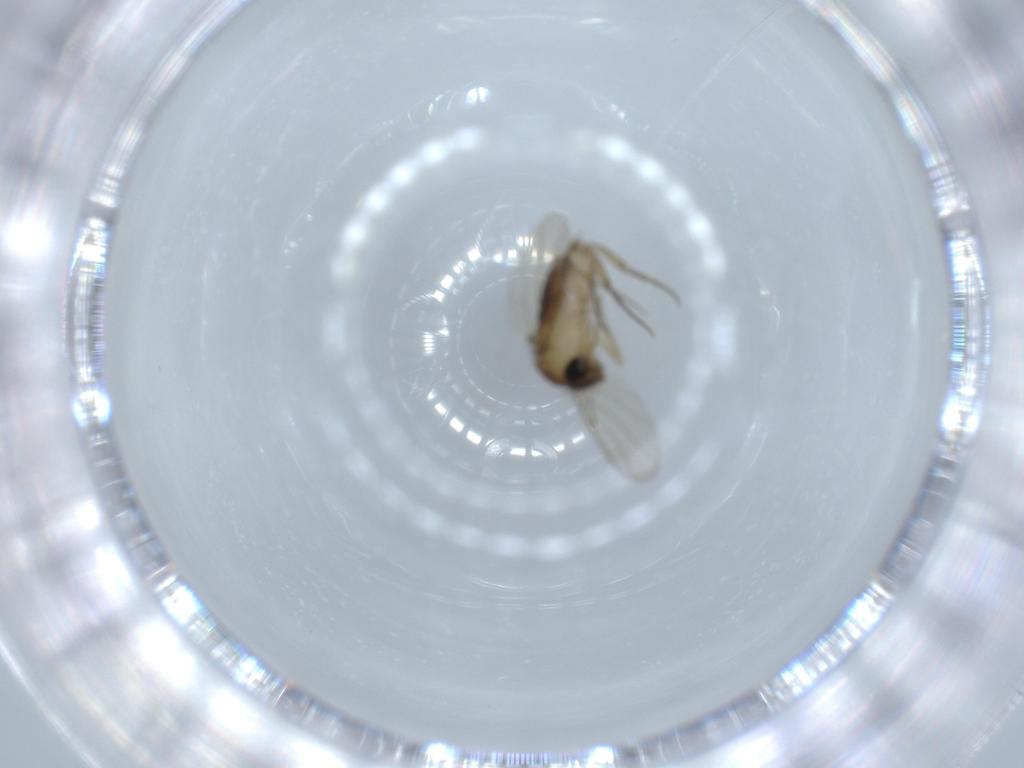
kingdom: Animalia
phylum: Arthropoda
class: Insecta
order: Diptera
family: Phoridae
